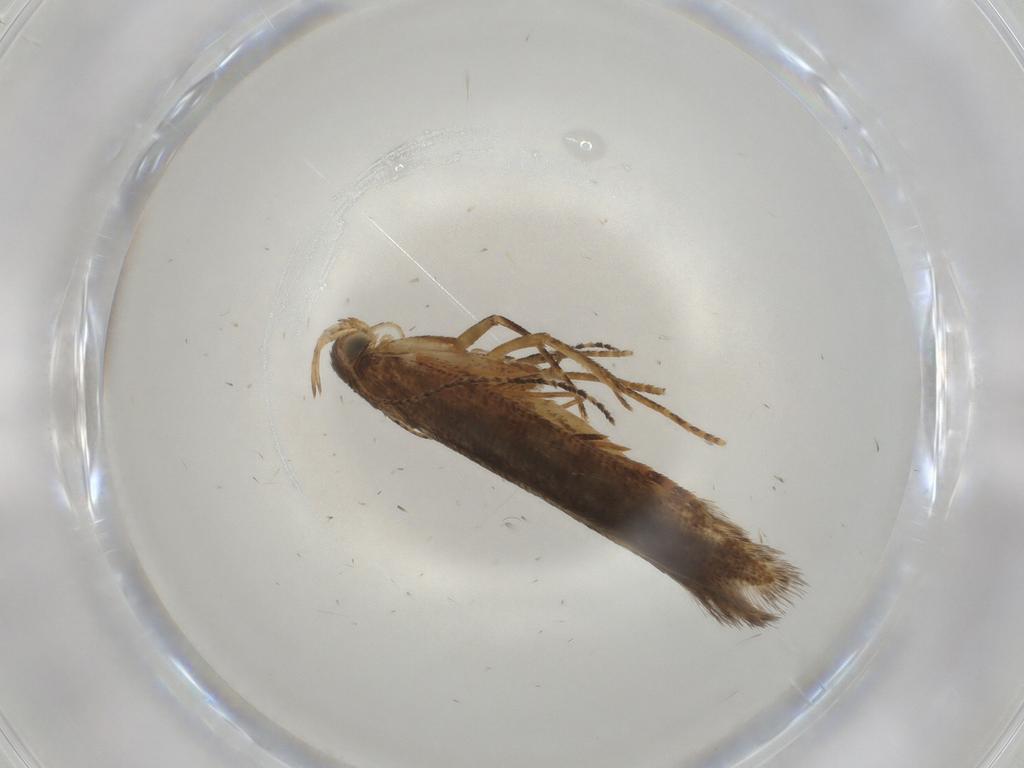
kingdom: Animalia
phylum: Arthropoda
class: Insecta
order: Lepidoptera
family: Gelechiidae
